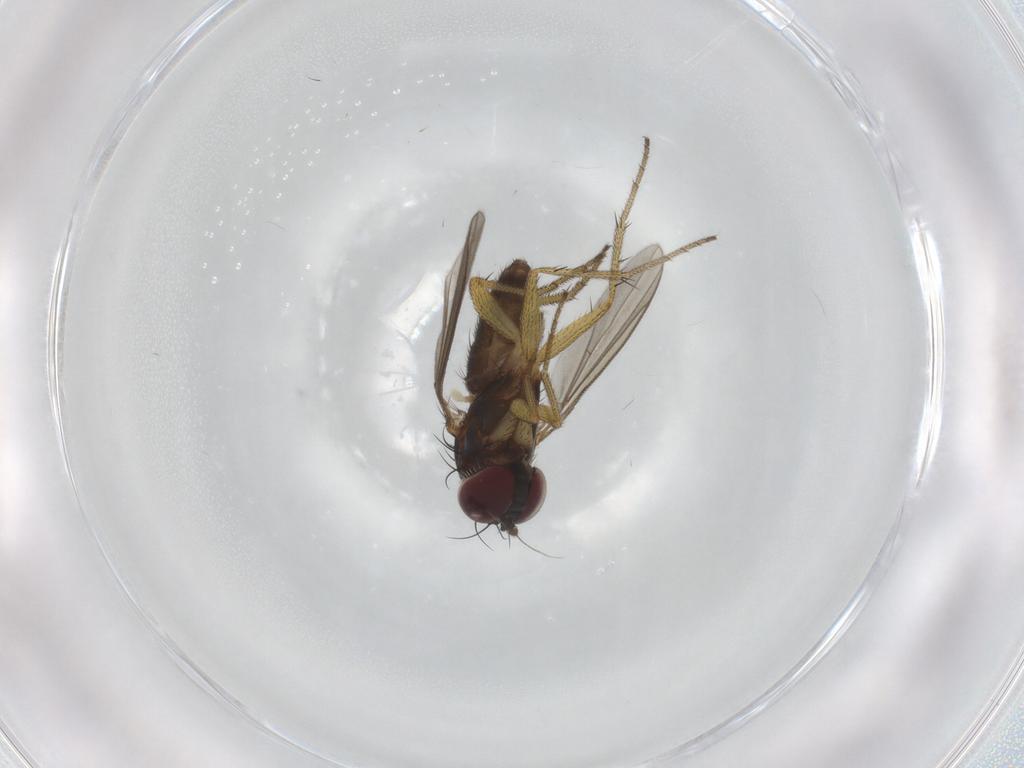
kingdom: Animalia
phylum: Arthropoda
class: Insecta
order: Diptera
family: Dolichopodidae
